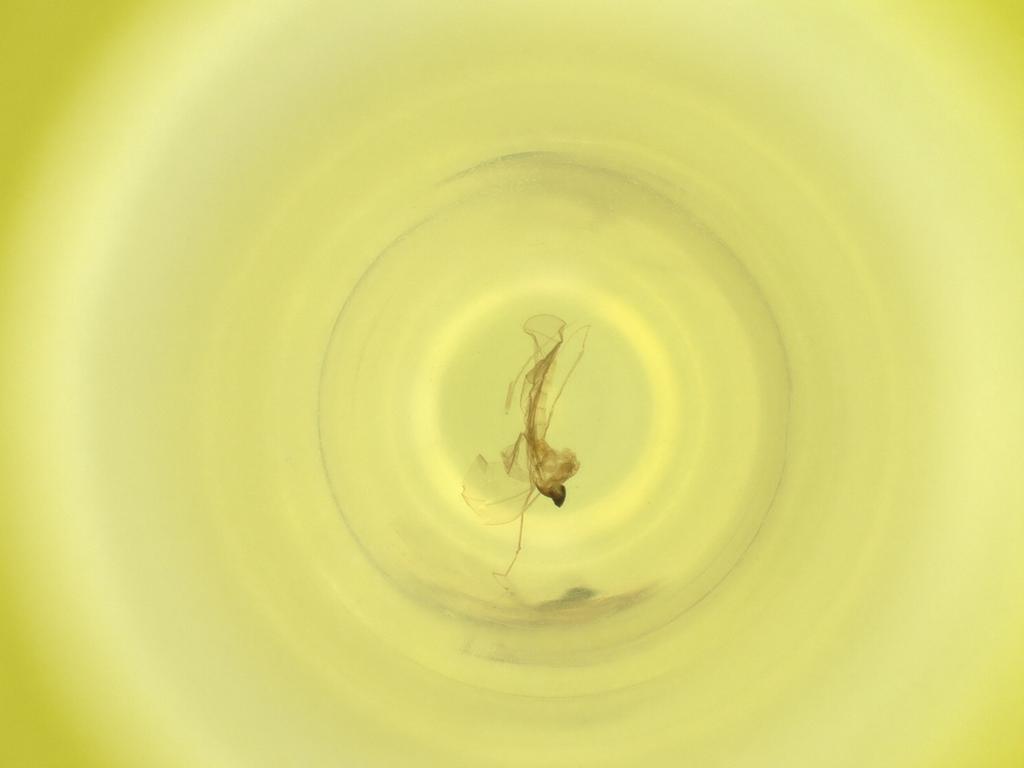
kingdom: Animalia
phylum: Arthropoda
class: Insecta
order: Diptera
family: Cecidomyiidae
